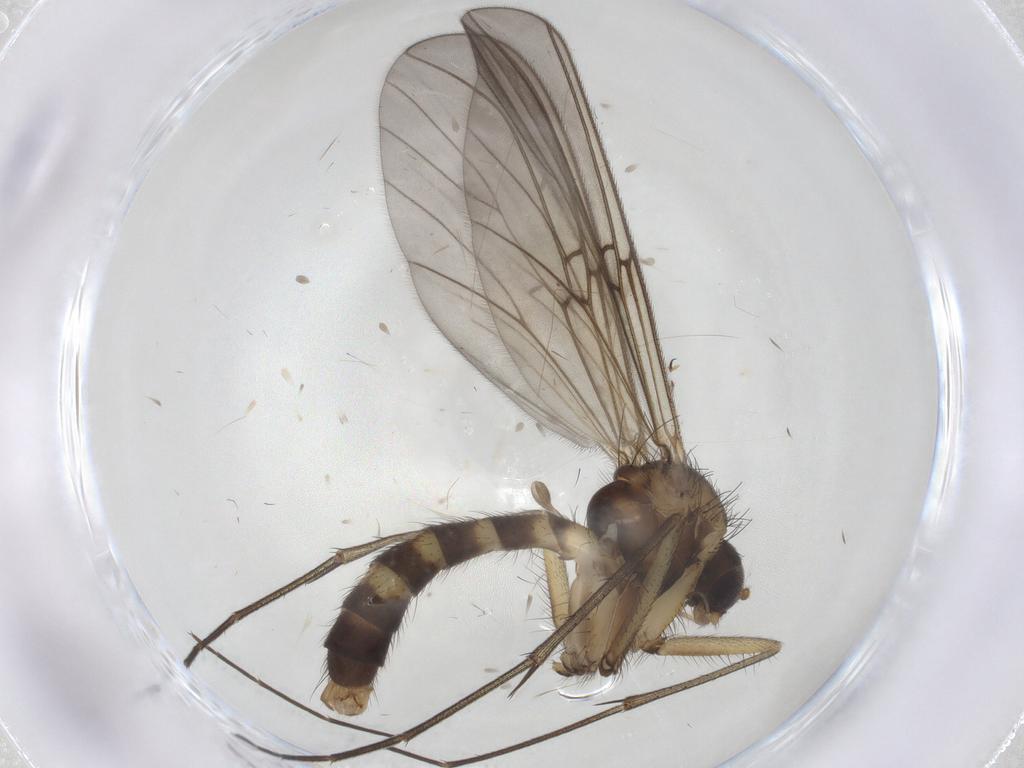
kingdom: Animalia
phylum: Arthropoda
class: Insecta
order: Diptera
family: Mycetophilidae
